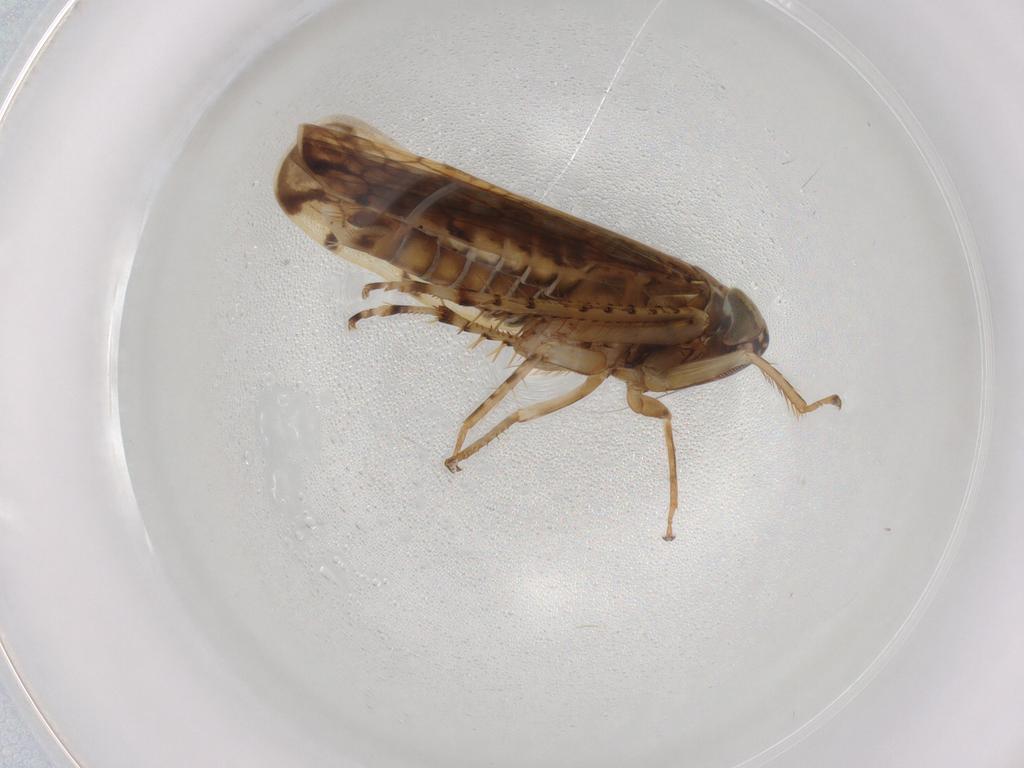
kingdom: Animalia
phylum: Arthropoda
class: Insecta
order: Hemiptera
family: Cicadellidae
